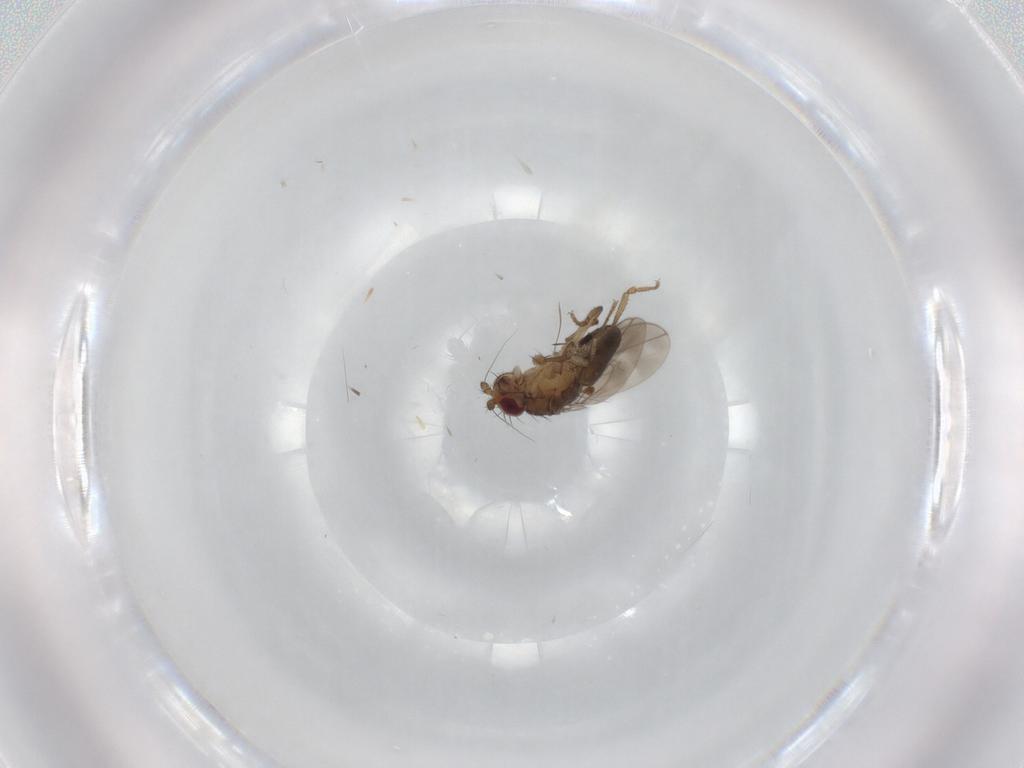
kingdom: Animalia
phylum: Arthropoda
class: Insecta
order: Diptera
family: Sphaeroceridae
